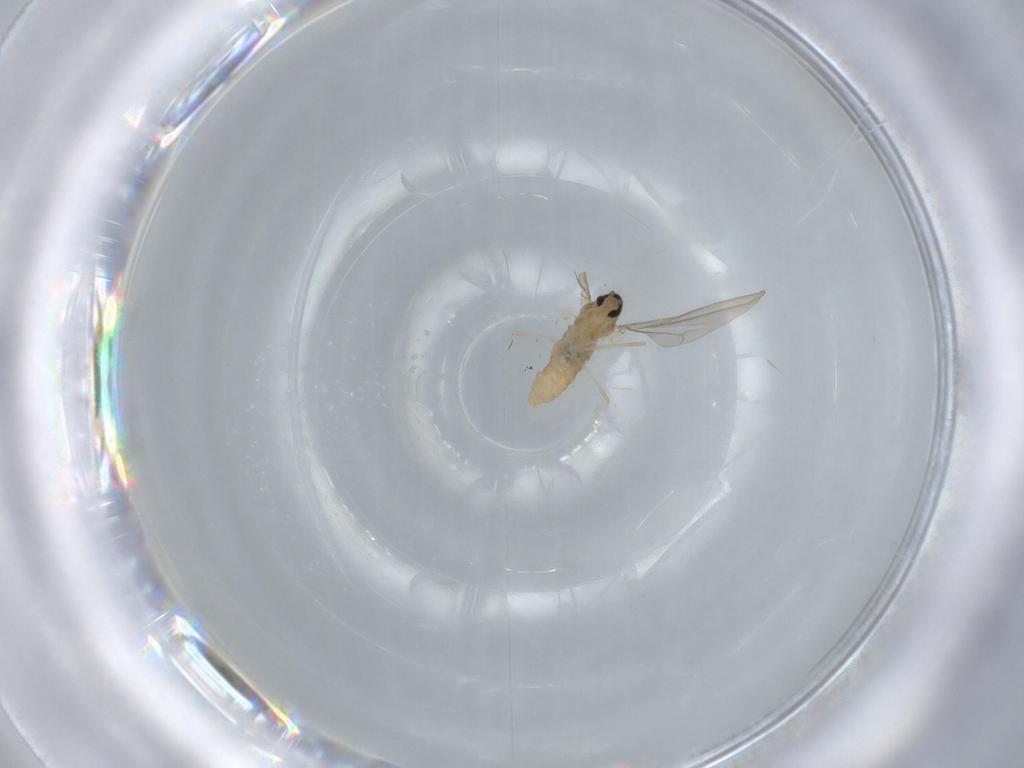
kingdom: Animalia
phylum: Arthropoda
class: Insecta
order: Diptera
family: Cecidomyiidae
